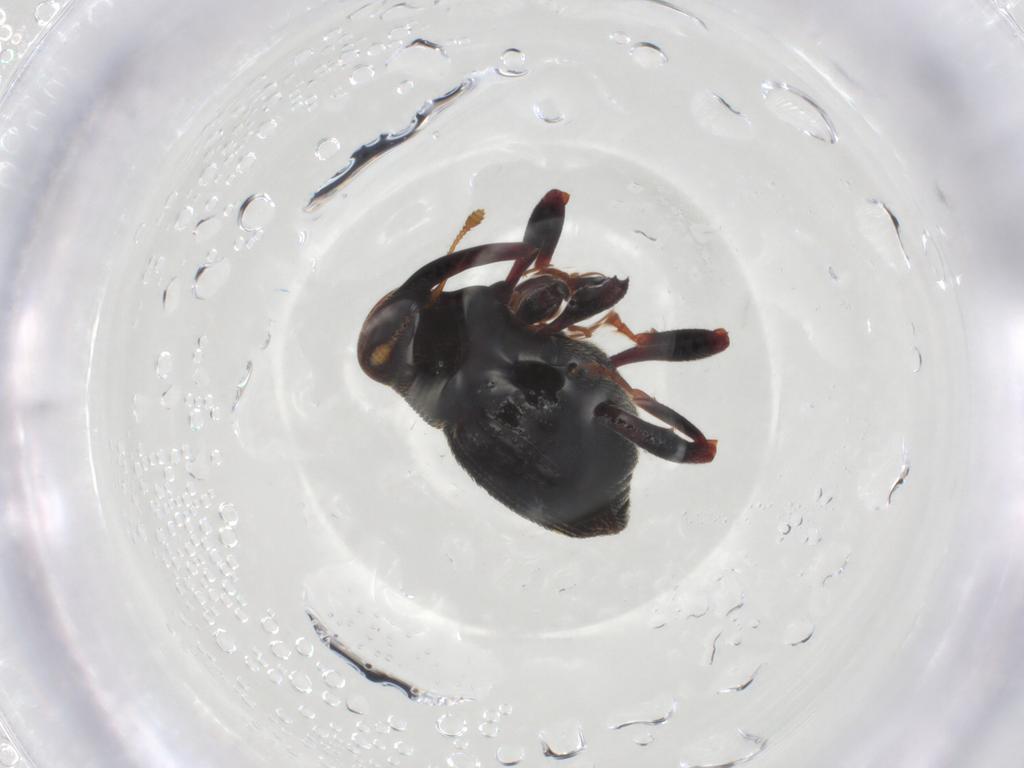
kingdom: Animalia
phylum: Arthropoda
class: Insecta
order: Coleoptera
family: Curculionidae
